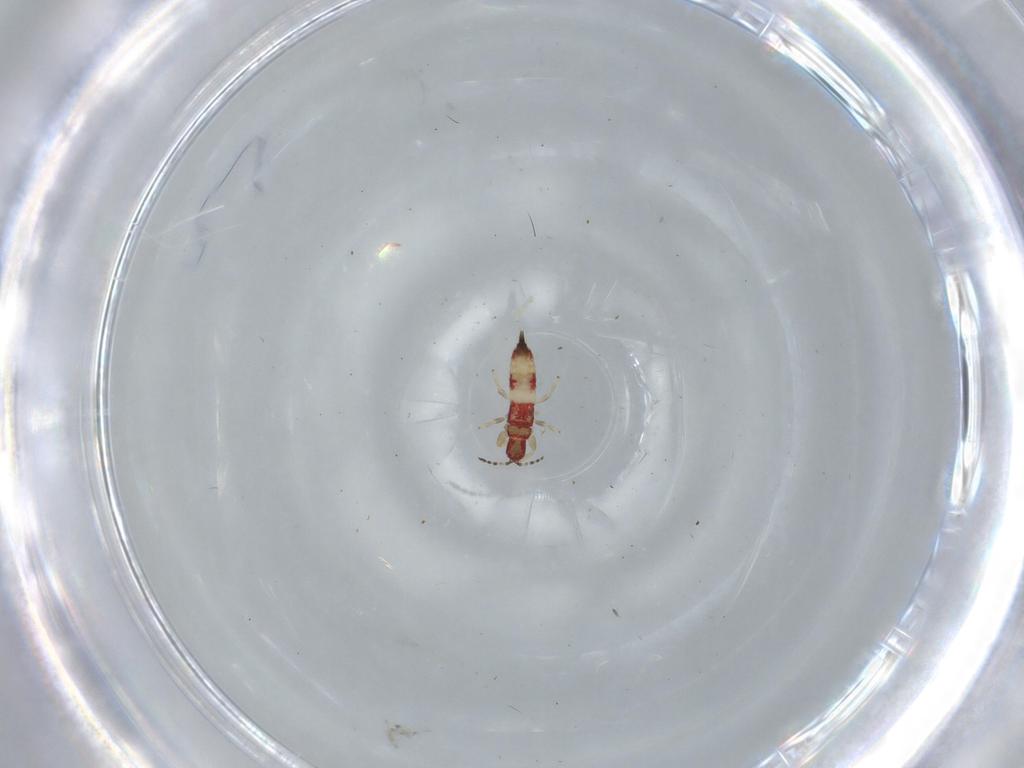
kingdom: Animalia
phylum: Arthropoda
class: Insecta
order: Thysanoptera
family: Phlaeothripidae
